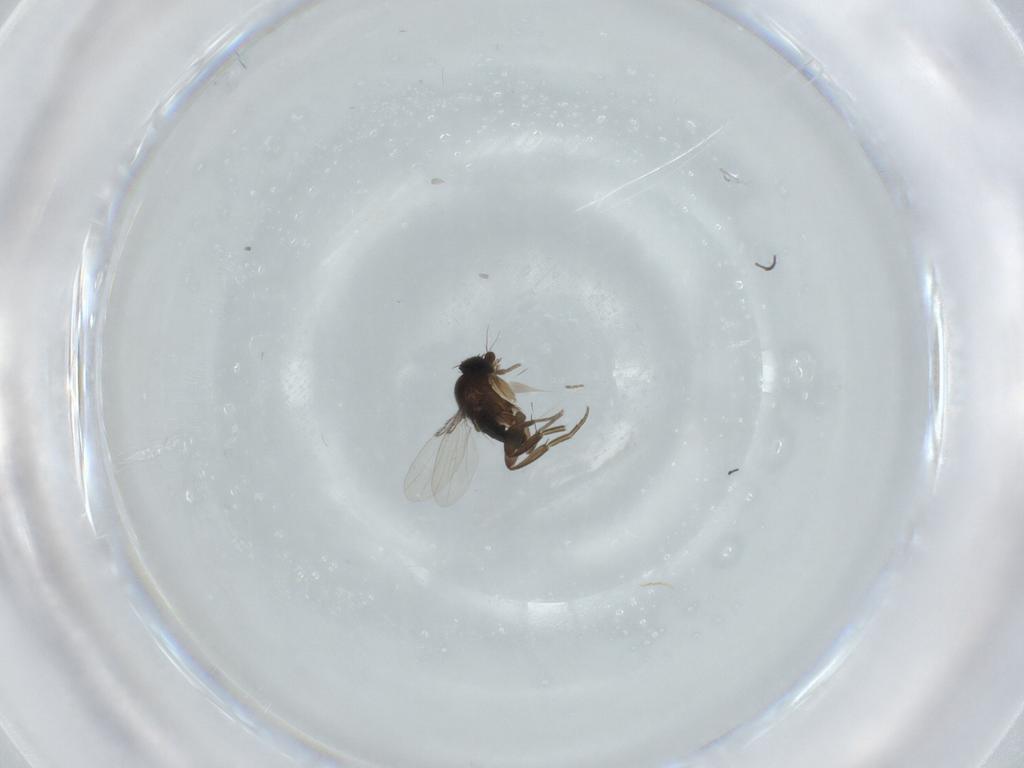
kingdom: Animalia
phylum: Arthropoda
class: Insecta
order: Diptera
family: Phoridae
